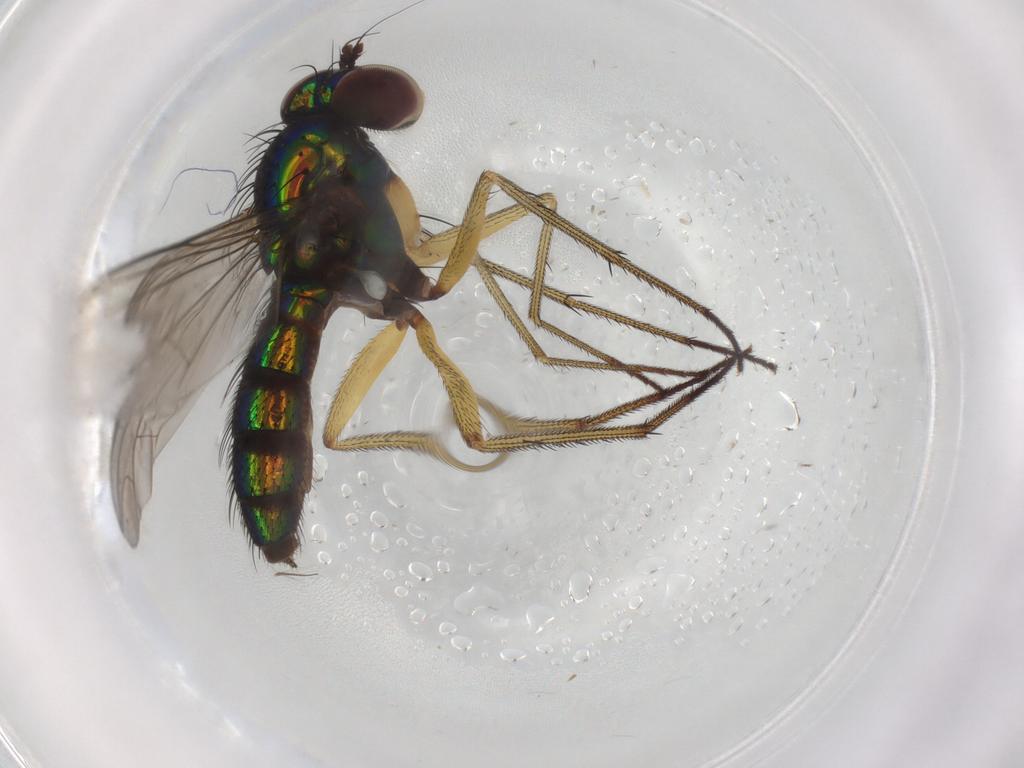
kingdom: Animalia
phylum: Arthropoda
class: Insecta
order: Diptera
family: Dolichopodidae
